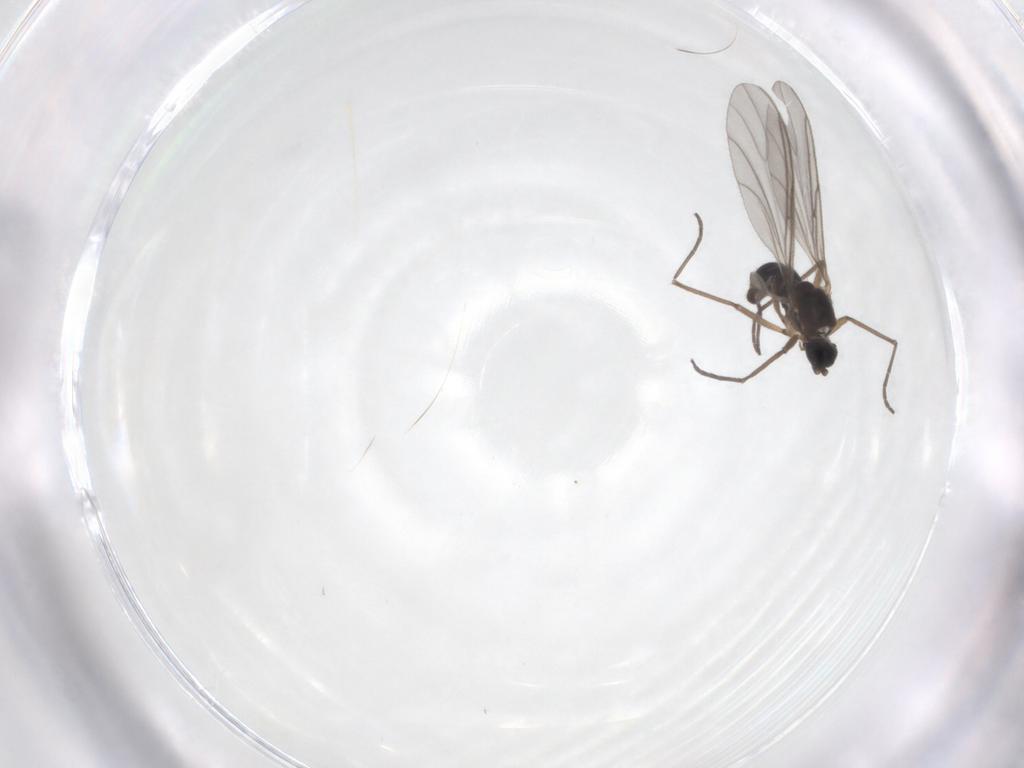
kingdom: Animalia
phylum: Arthropoda
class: Insecta
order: Diptera
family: Sciaridae
